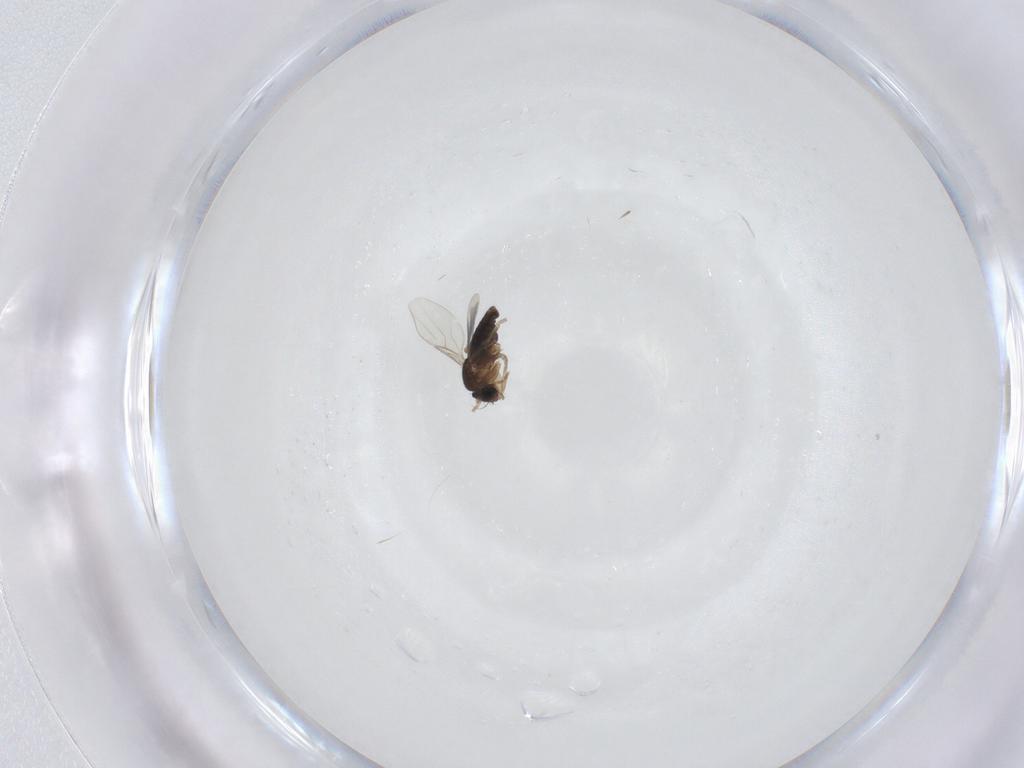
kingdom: Animalia
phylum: Arthropoda
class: Insecta
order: Diptera
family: Phoridae
